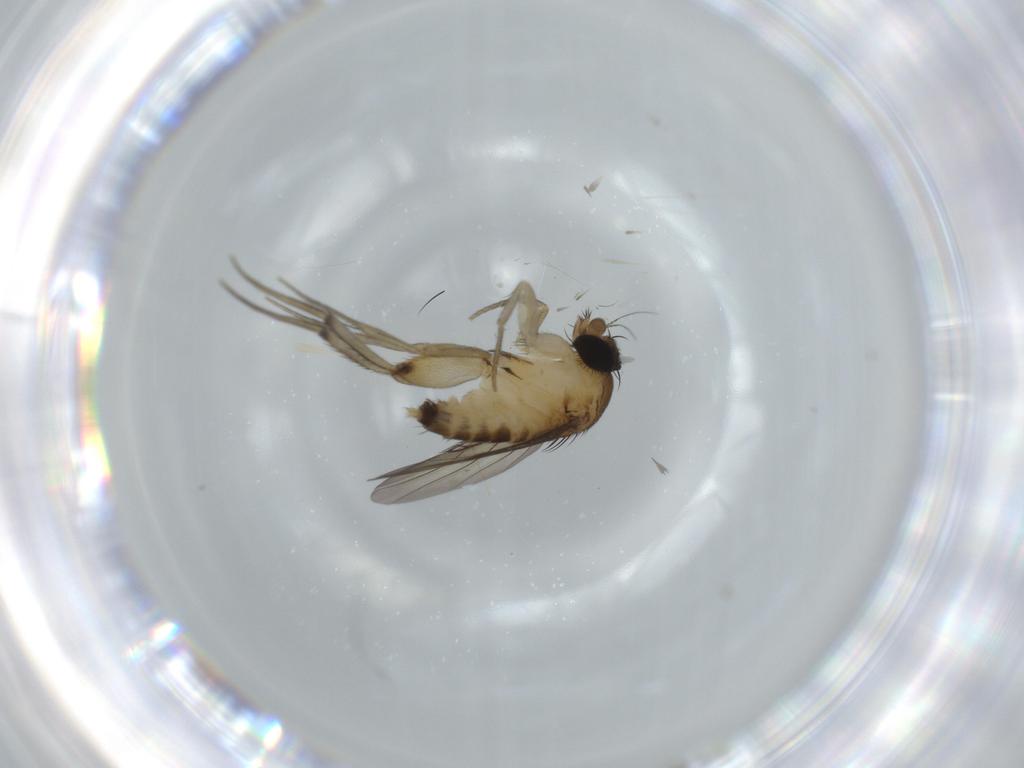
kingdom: Animalia
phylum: Arthropoda
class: Insecta
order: Diptera
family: Phoridae
